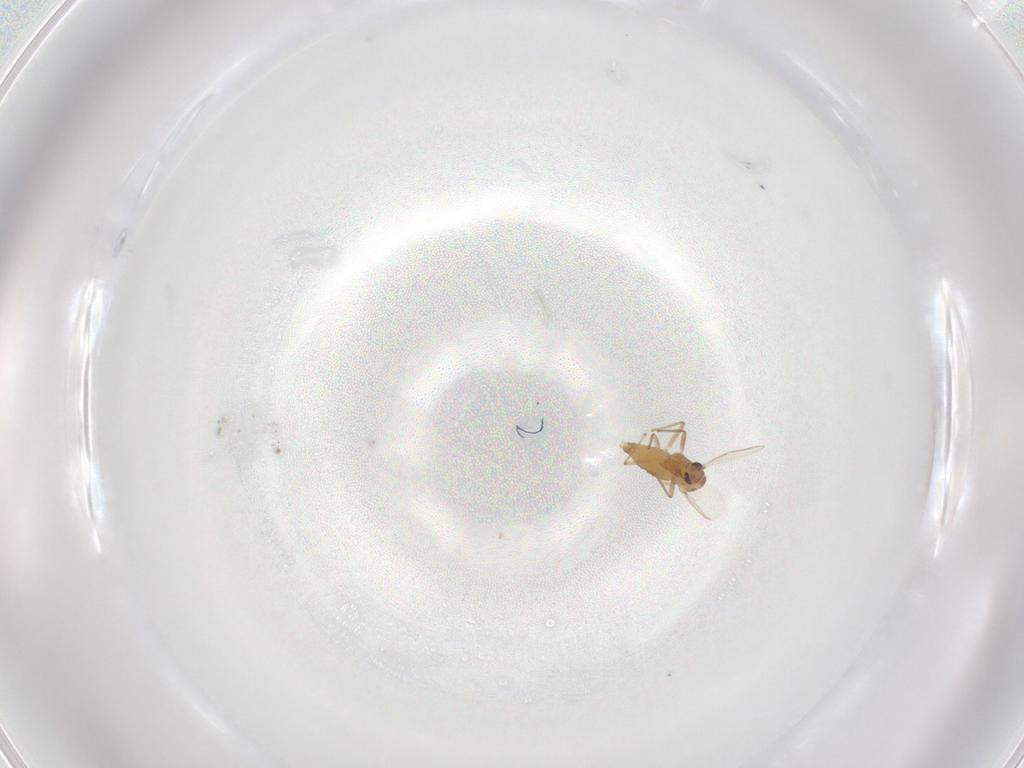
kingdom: Animalia
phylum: Arthropoda
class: Insecta
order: Diptera
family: Chironomidae
